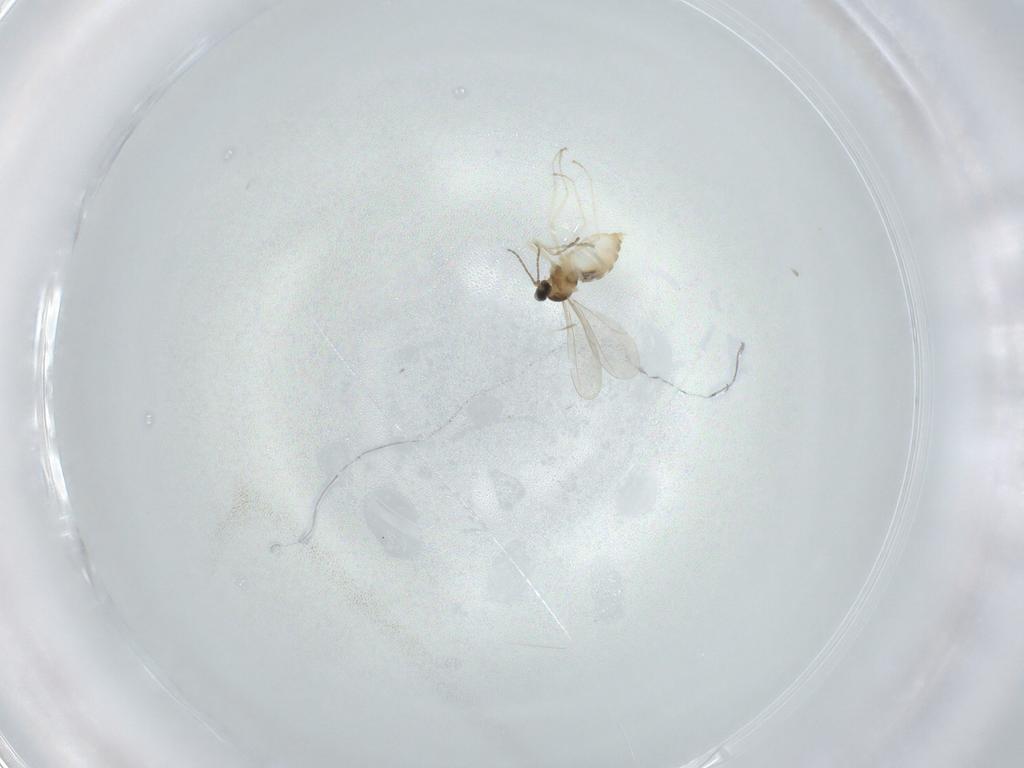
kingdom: Animalia
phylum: Arthropoda
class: Insecta
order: Diptera
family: Cecidomyiidae
